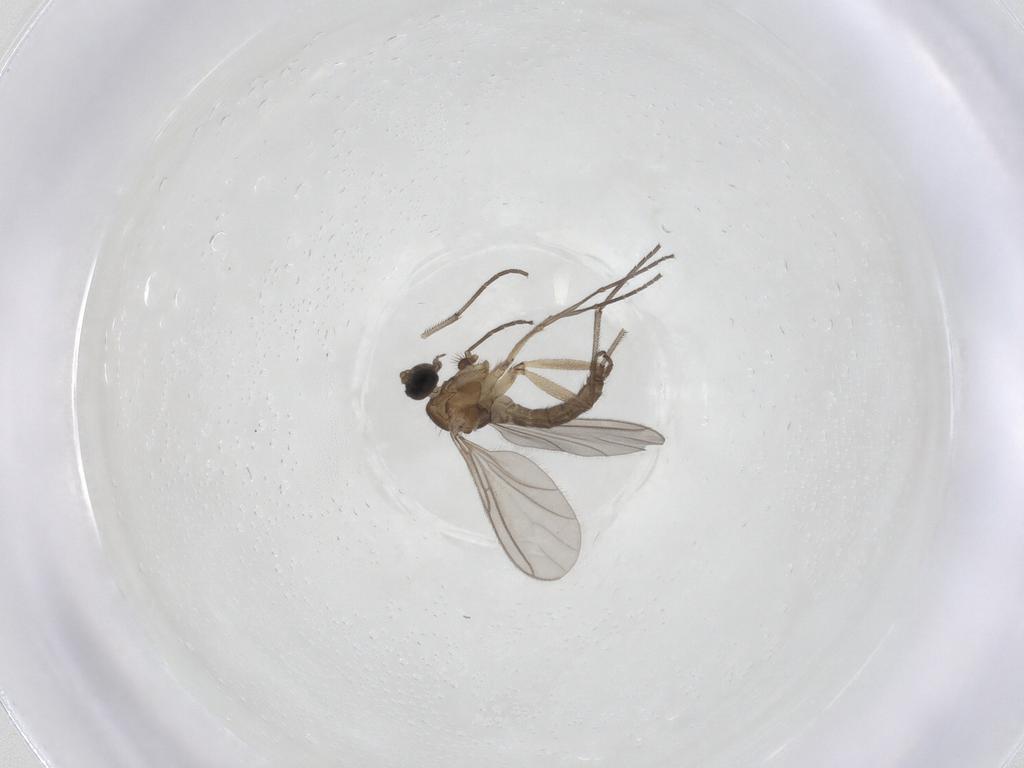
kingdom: Animalia
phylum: Arthropoda
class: Insecta
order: Diptera
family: Sciaridae
